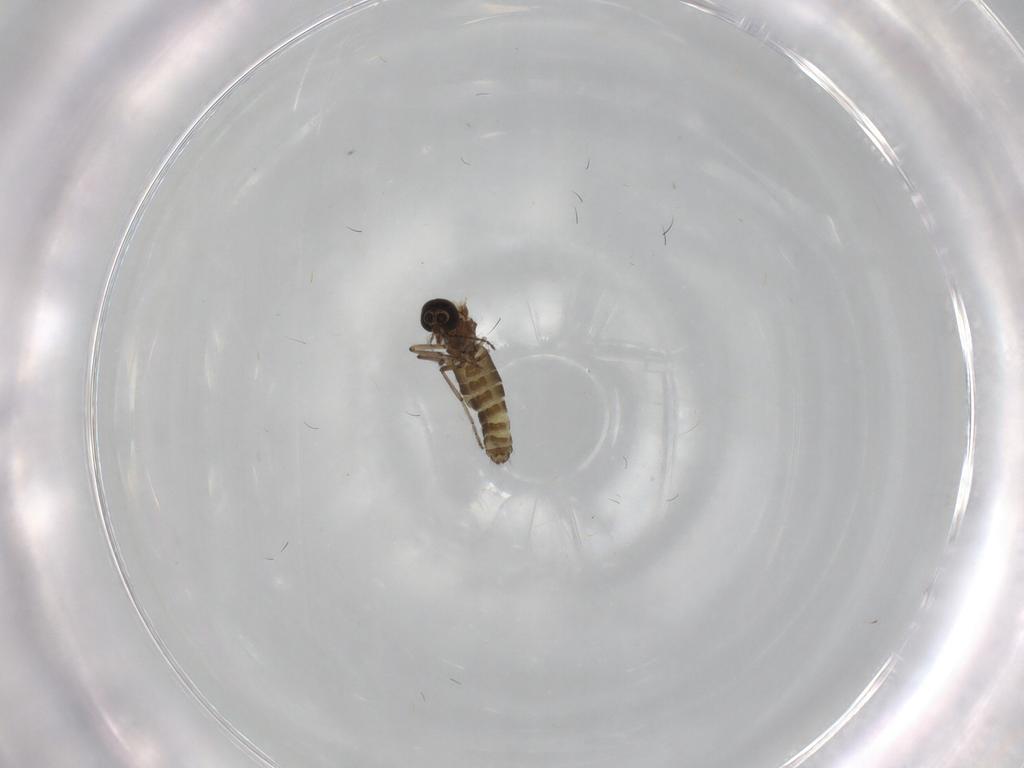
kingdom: Animalia
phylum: Arthropoda
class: Insecta
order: Diptera
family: Ceratopogonidae
